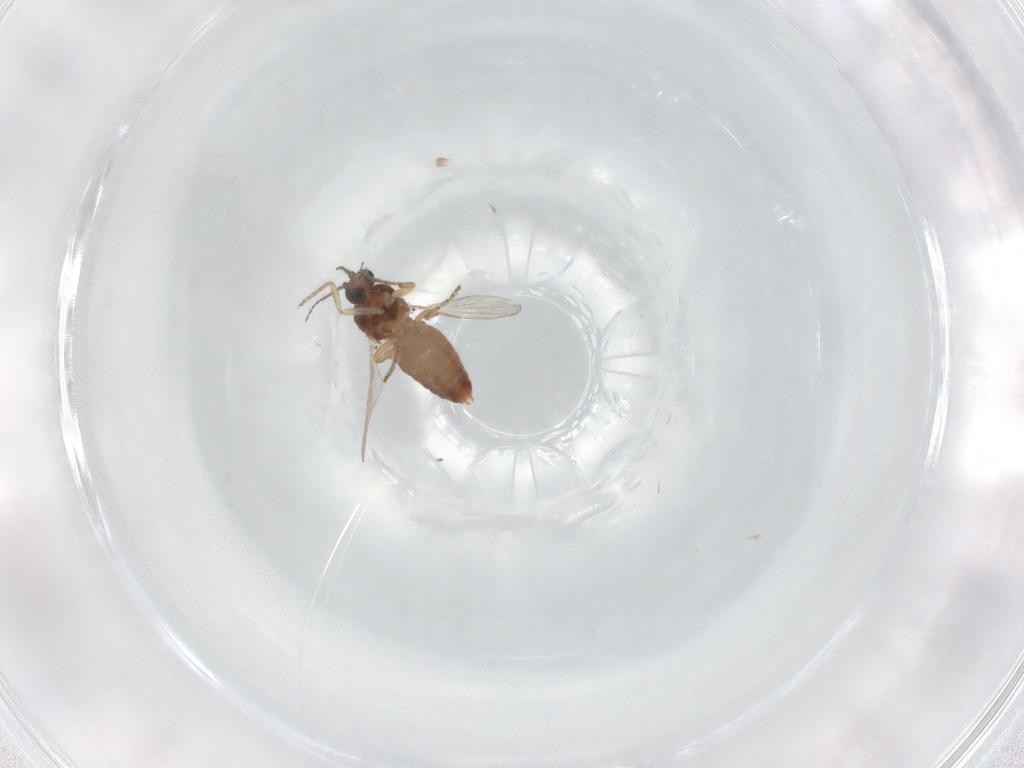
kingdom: Animalia
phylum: Arthropoda
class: Insecta
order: Diptera
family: Ceratopogonidae
